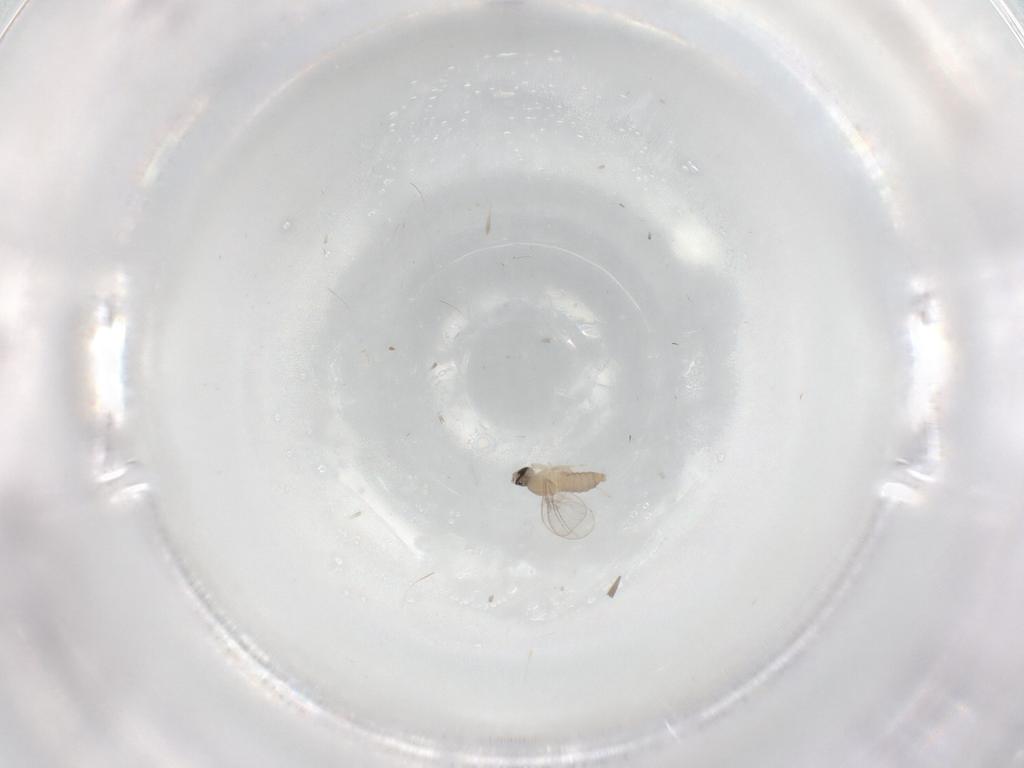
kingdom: Animalia
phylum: Arthropoda
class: Insecta
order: Diptera
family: Cecidomyiidae
